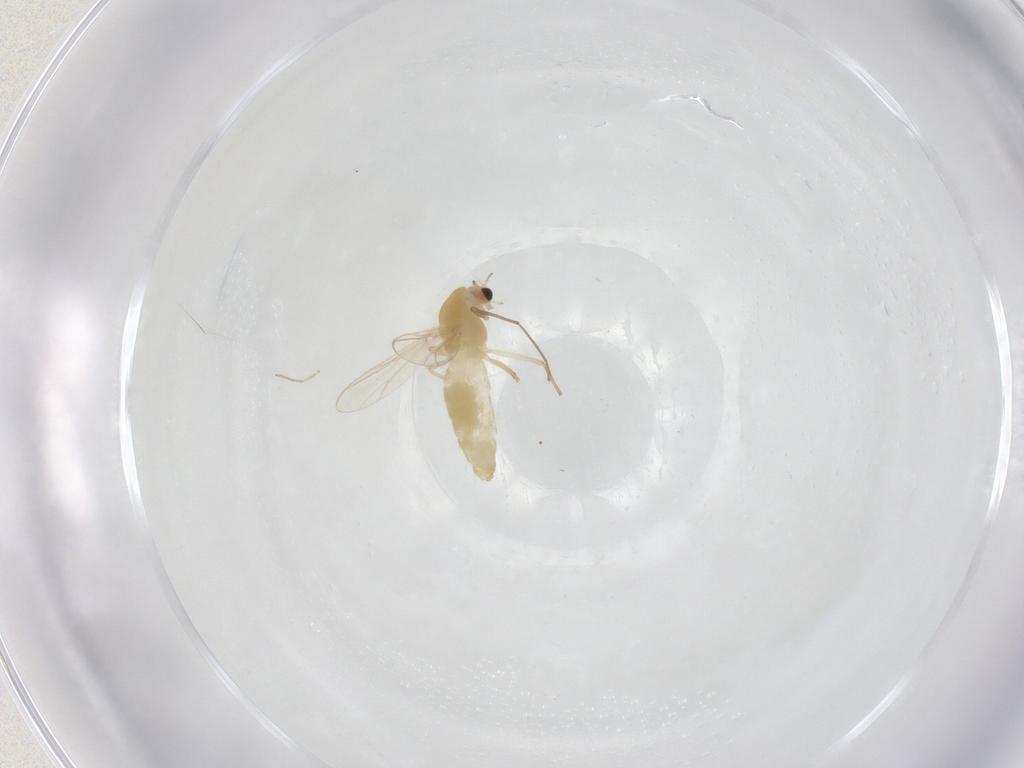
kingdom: Animalia
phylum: Arthropoda
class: Insecta
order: Diptera
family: Chironomidae
